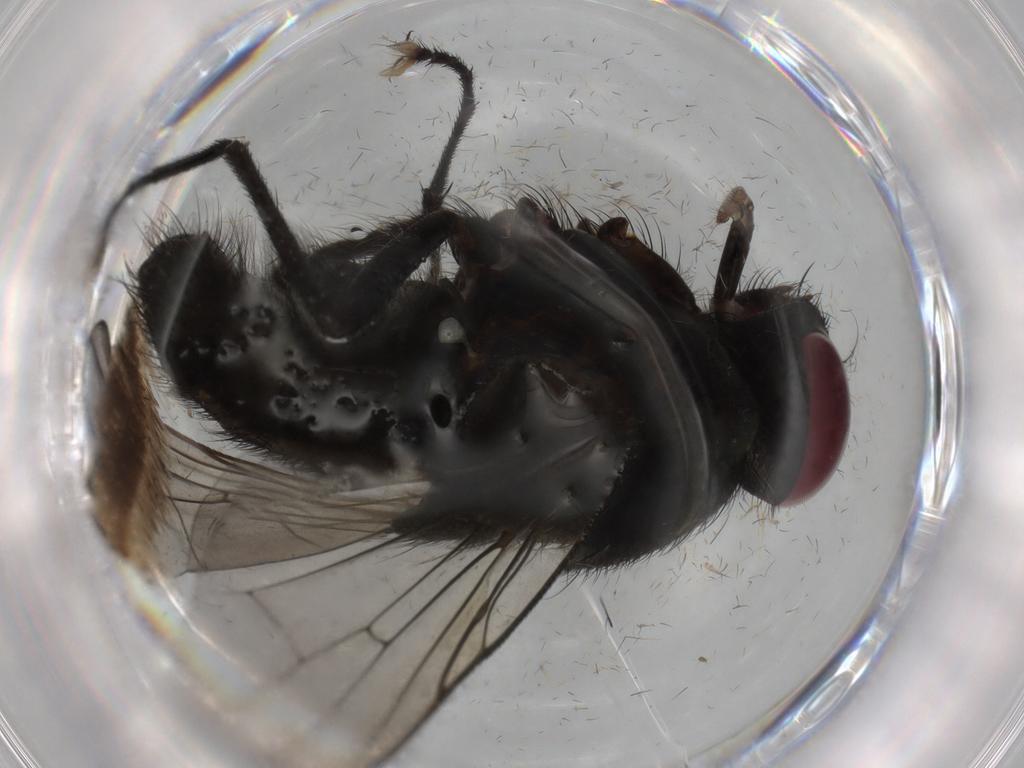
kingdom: Animalia
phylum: Arthropoda
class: Insecta
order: Diptera
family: Muscidae
